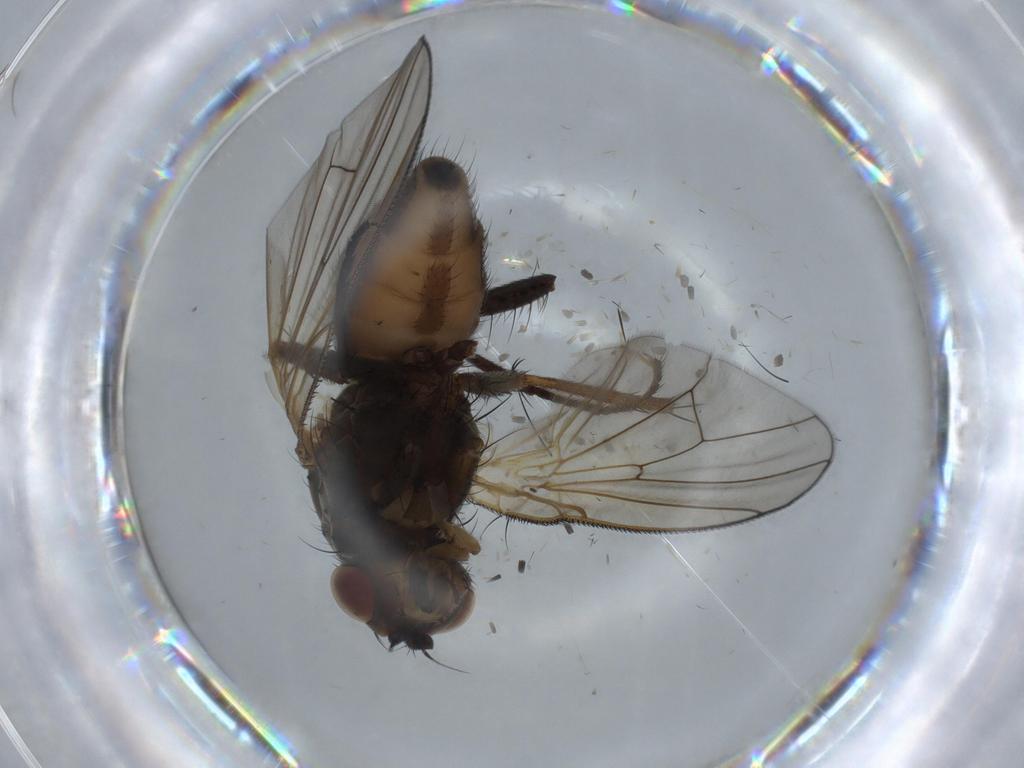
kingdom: Animalia
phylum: Arthropoda
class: Insecta
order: Diptera
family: Anthomyiidae
